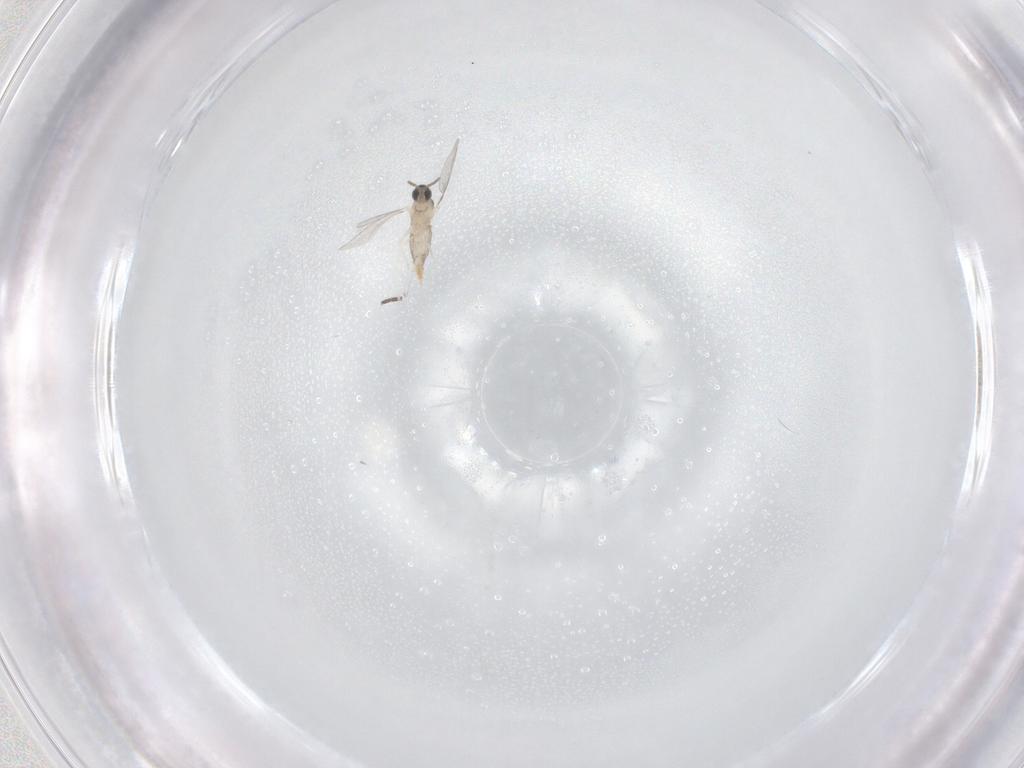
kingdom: Animalia
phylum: Arthropoda
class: Insecta
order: Diptera
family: Cecidomyiidae
